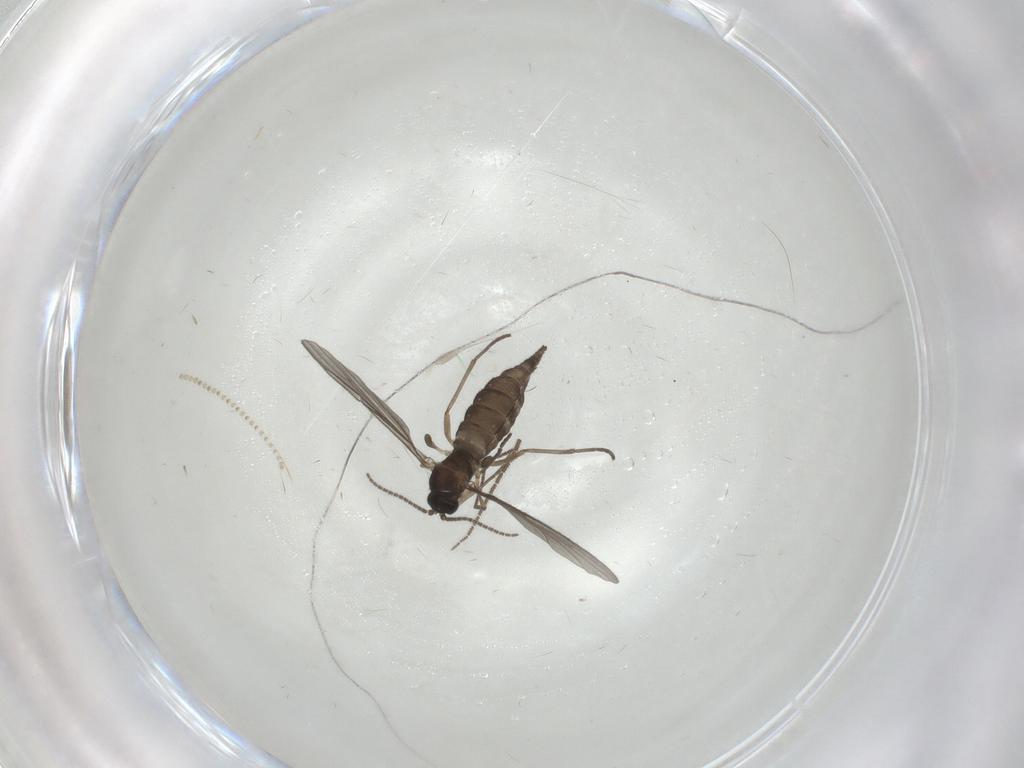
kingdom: Animalia
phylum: Arthropoda
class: Insecta
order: Diptera
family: Sciaridae
